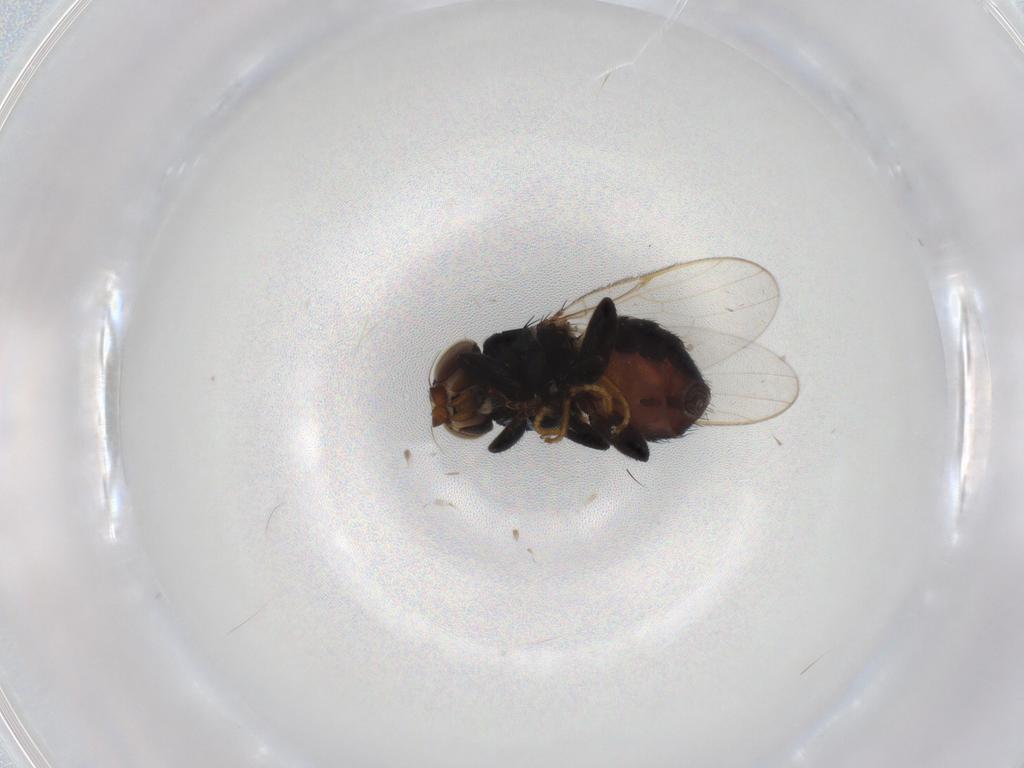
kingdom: Animalia
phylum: Arthropoda
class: Insecta
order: Diptera
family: Chloropidae
